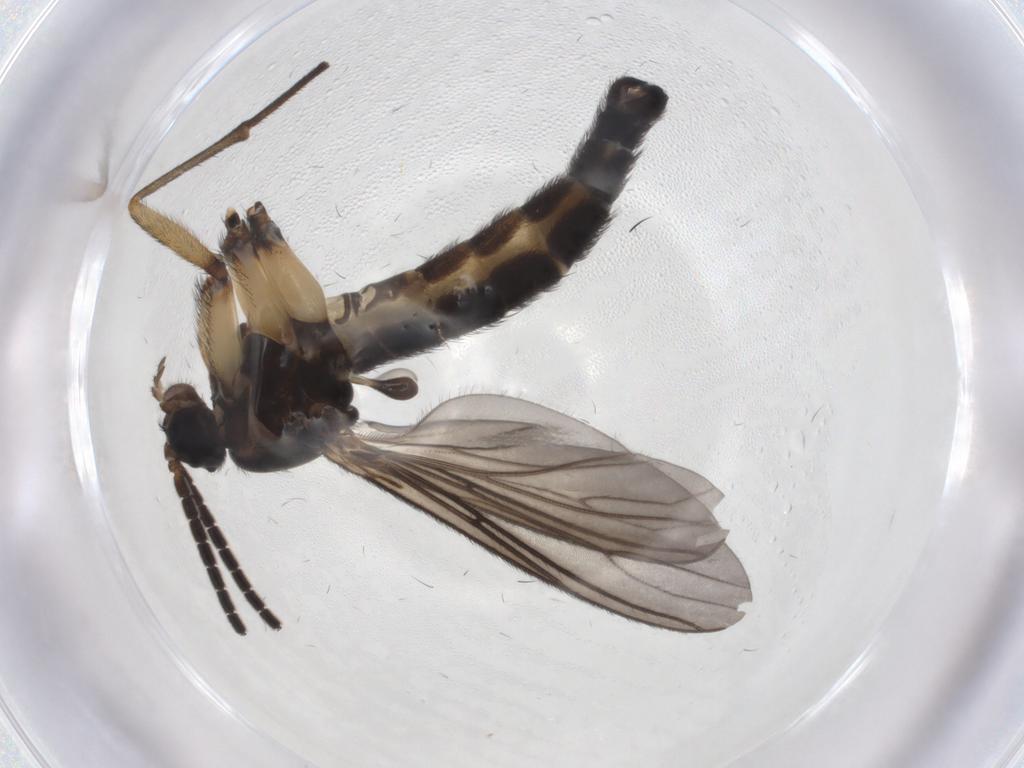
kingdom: Animalia
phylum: Arthropoda
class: Insecta
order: Diptera
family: Sciaridae
